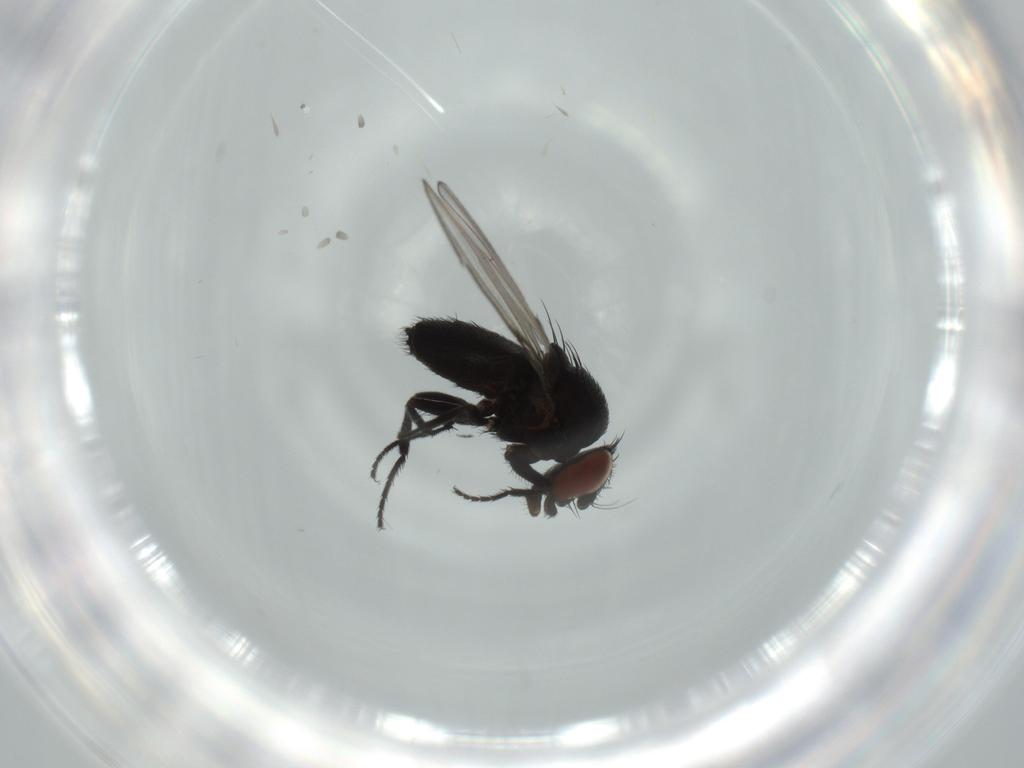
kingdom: Animalia
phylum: Arthropoda
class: Insecta
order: Diptera
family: Milichiidae
